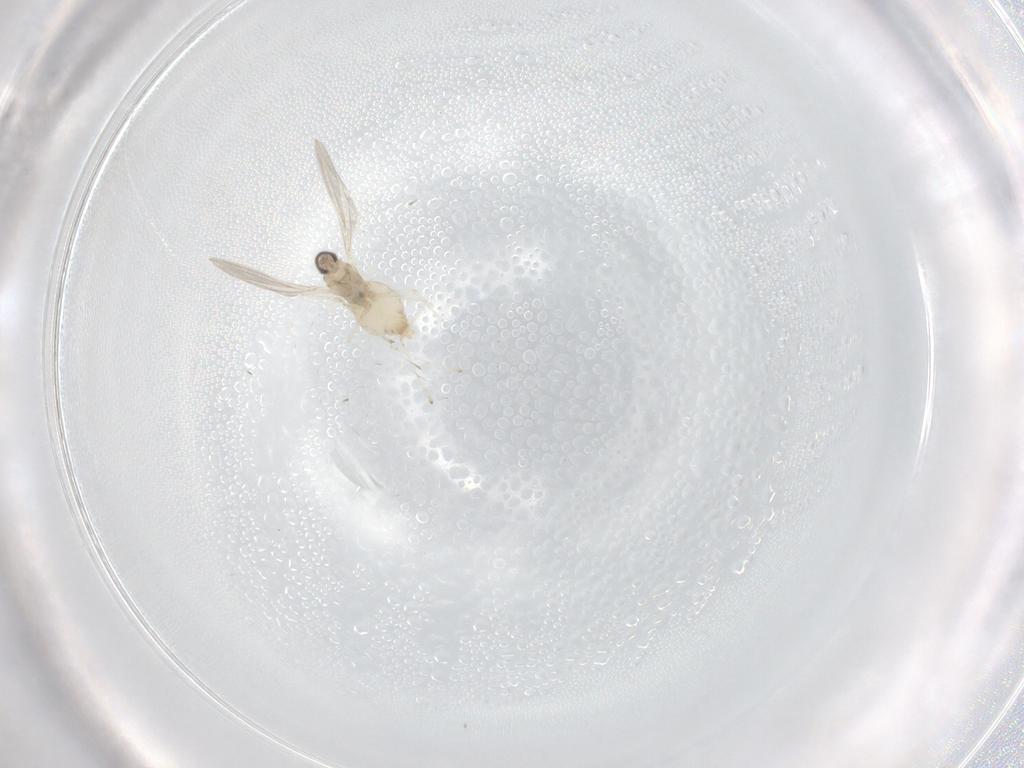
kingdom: Animalia
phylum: Arthropoda
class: Insecta
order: Diptera
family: Cecidomyiidae
